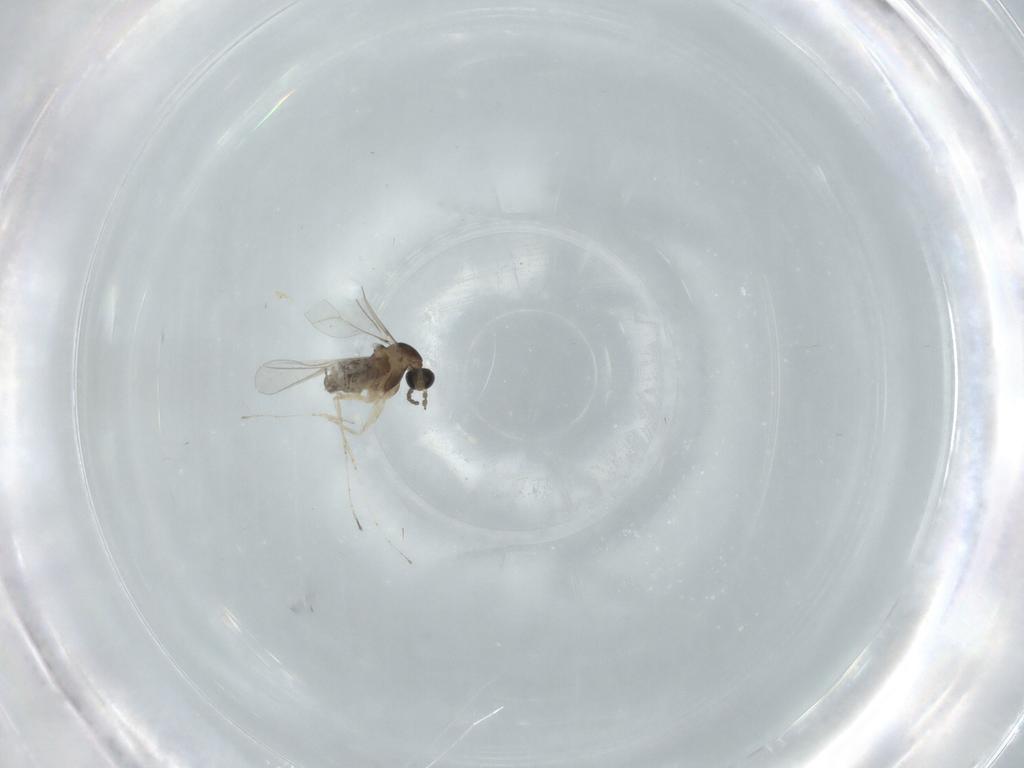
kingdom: Animalia
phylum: Arthropoda
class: Insecta
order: Diptera
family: Cecidomyiidae
